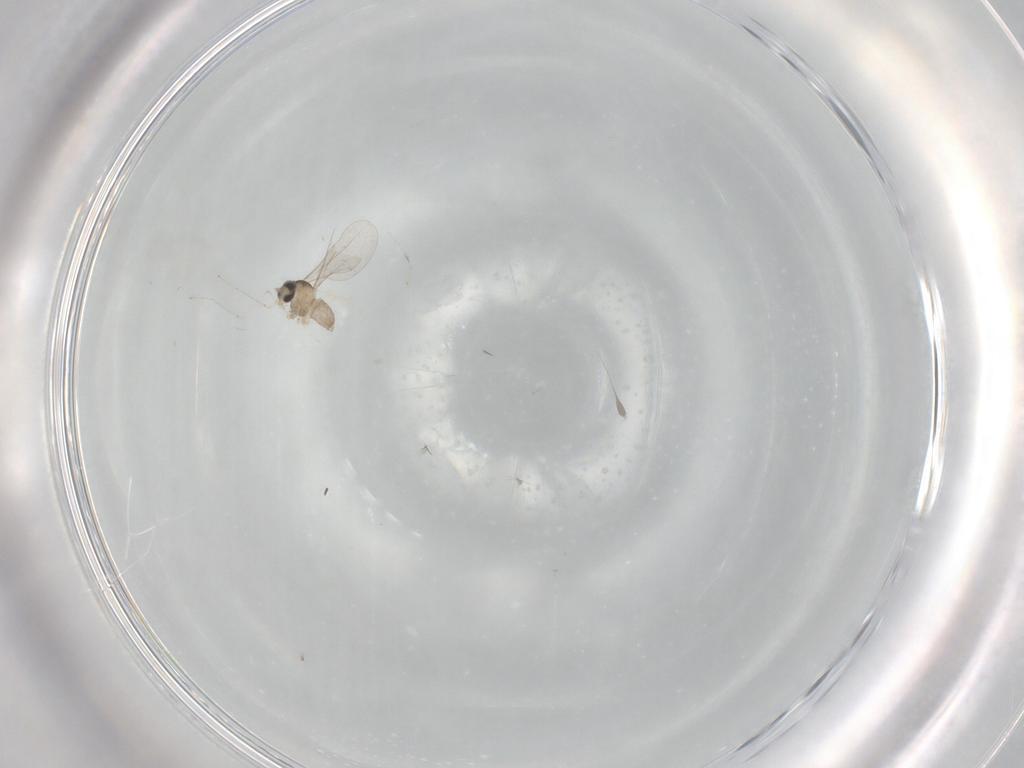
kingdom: Animalia
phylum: Arthropoda
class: Insecta
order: Diptera
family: Cecidomyiidae
